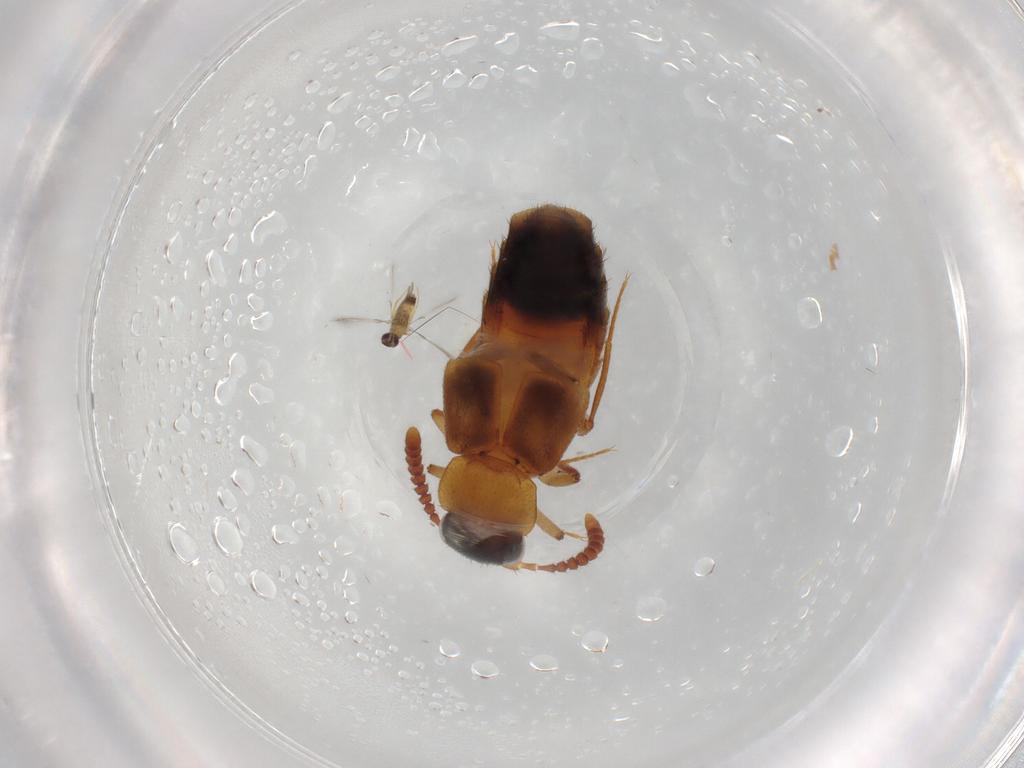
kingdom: Animalia
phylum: Arthropoda
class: Insecta
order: Coleoptera
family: Staphylinidae
